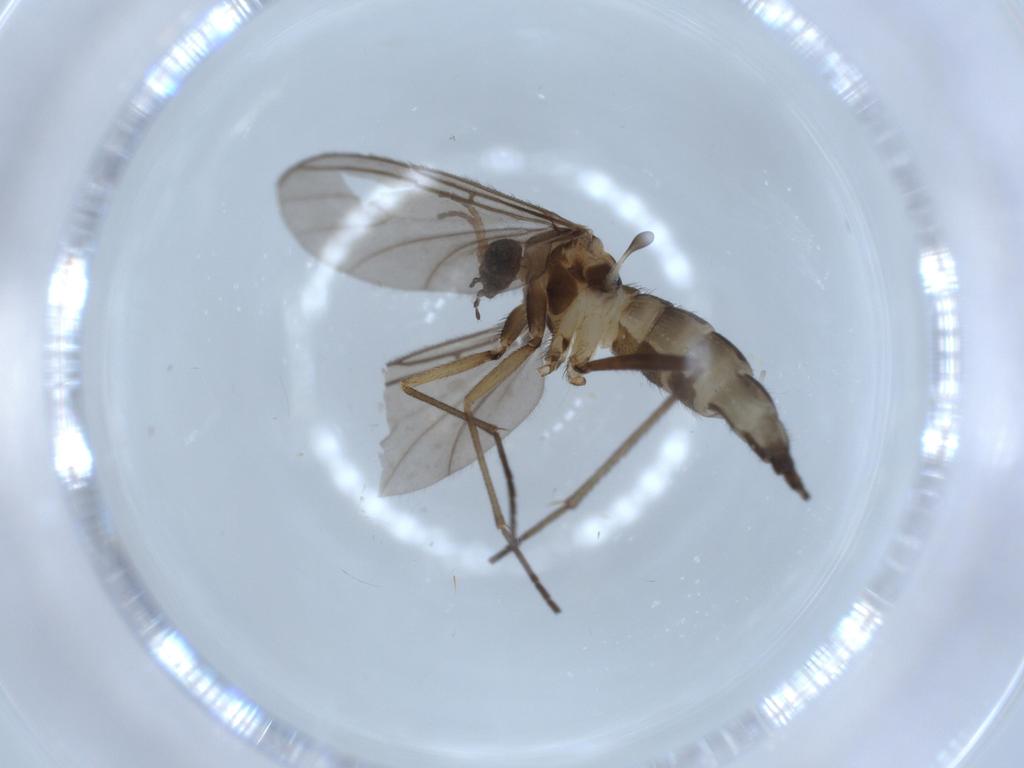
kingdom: Animalia
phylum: Arthropoda
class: Insecta
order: Diptera
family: Sciaridae
